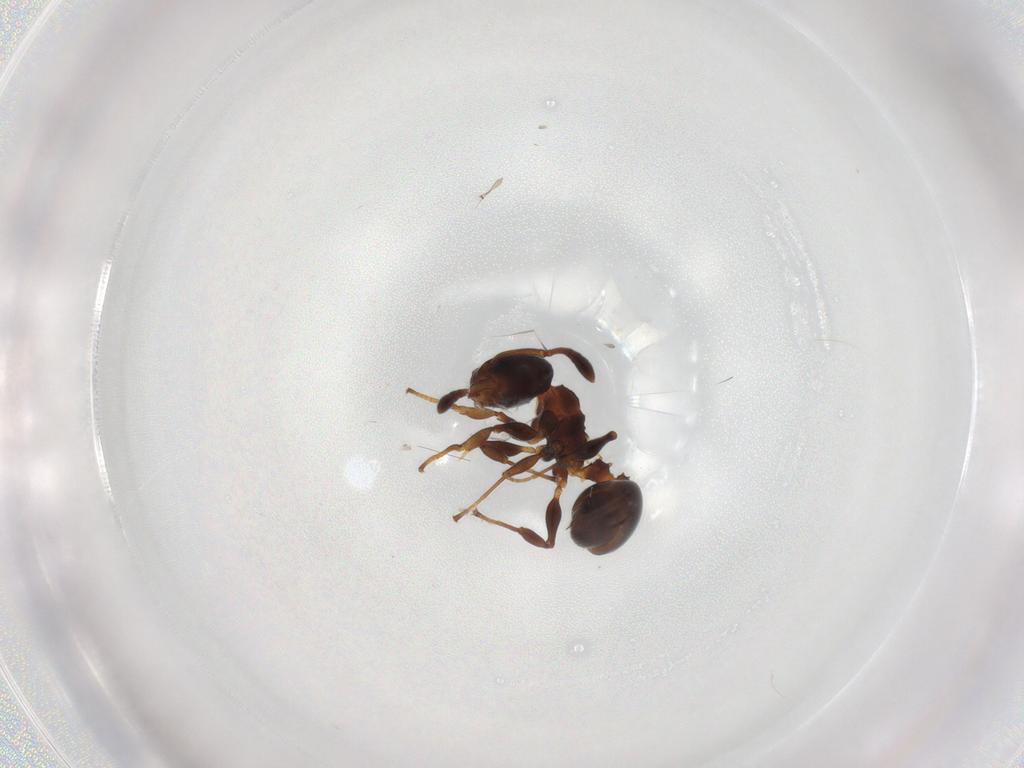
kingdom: Animalia
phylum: Arthropoda
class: Insecta
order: Hymenoptera
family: Formicidae
